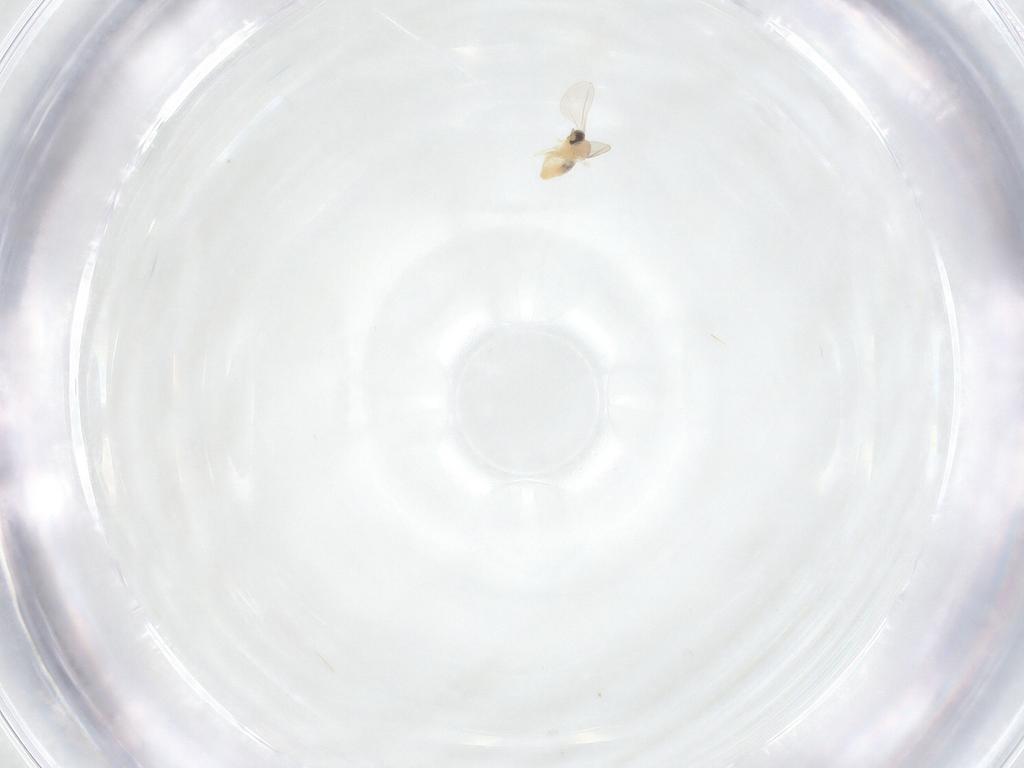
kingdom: Animalia
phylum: Arthropoda
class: Insecta
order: Diptera
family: Cecidomyiidae
